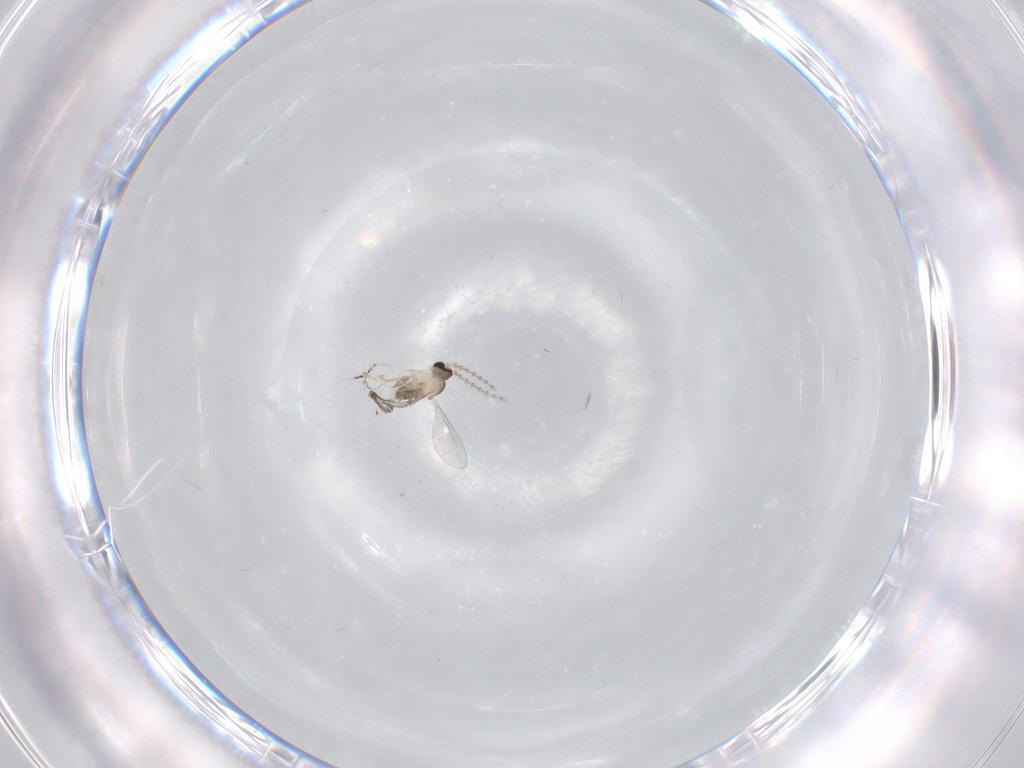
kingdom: Animalia
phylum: Arthropoda
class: Insecta
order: Diptera
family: Cecidomyiidae
